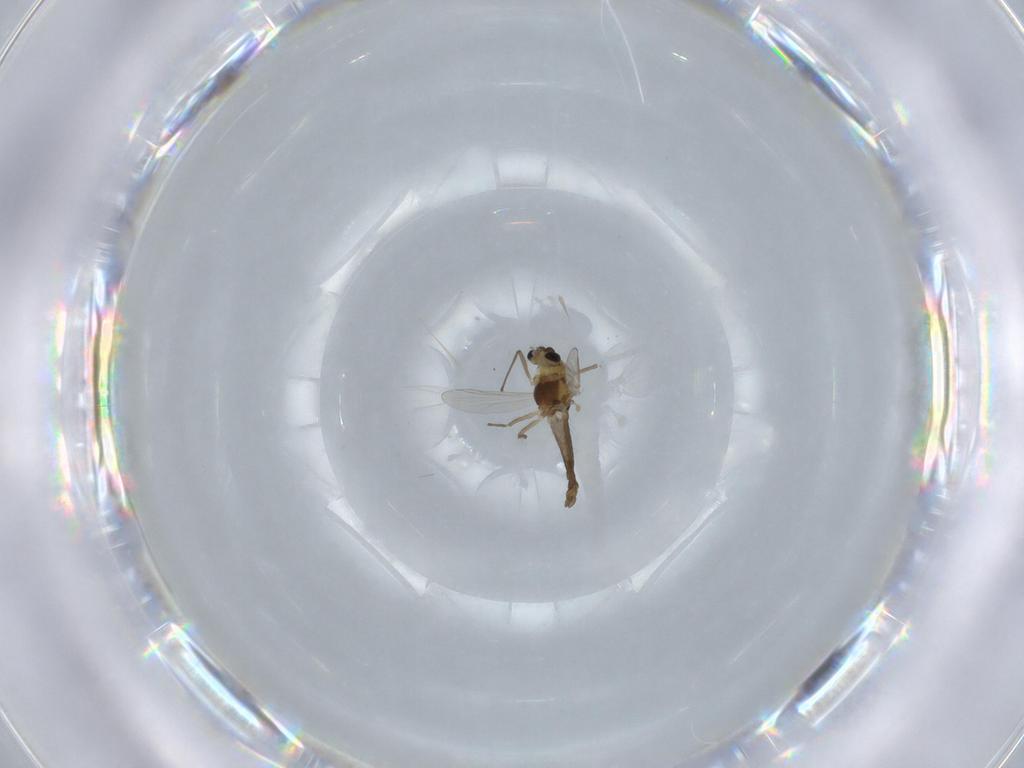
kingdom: Animalia
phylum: Arthropoda
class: Insecta
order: Diptera
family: Chironomidae
